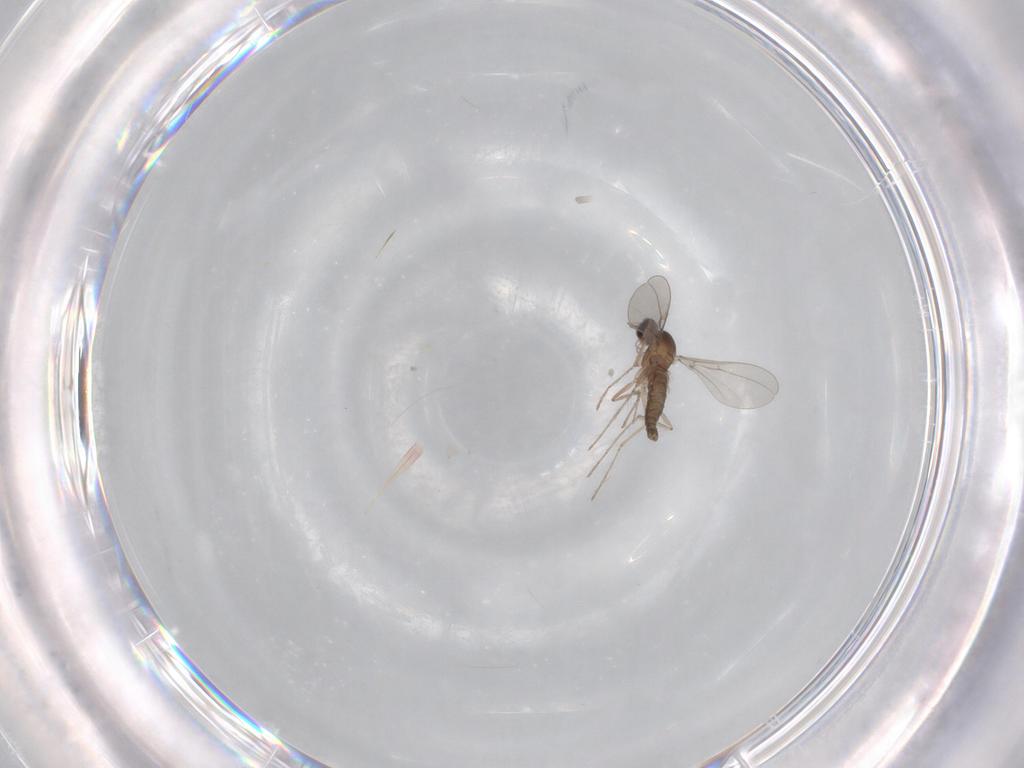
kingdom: Animalia
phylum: Arthropoda
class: Insecta
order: Diptera
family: Cecidomyiidae
